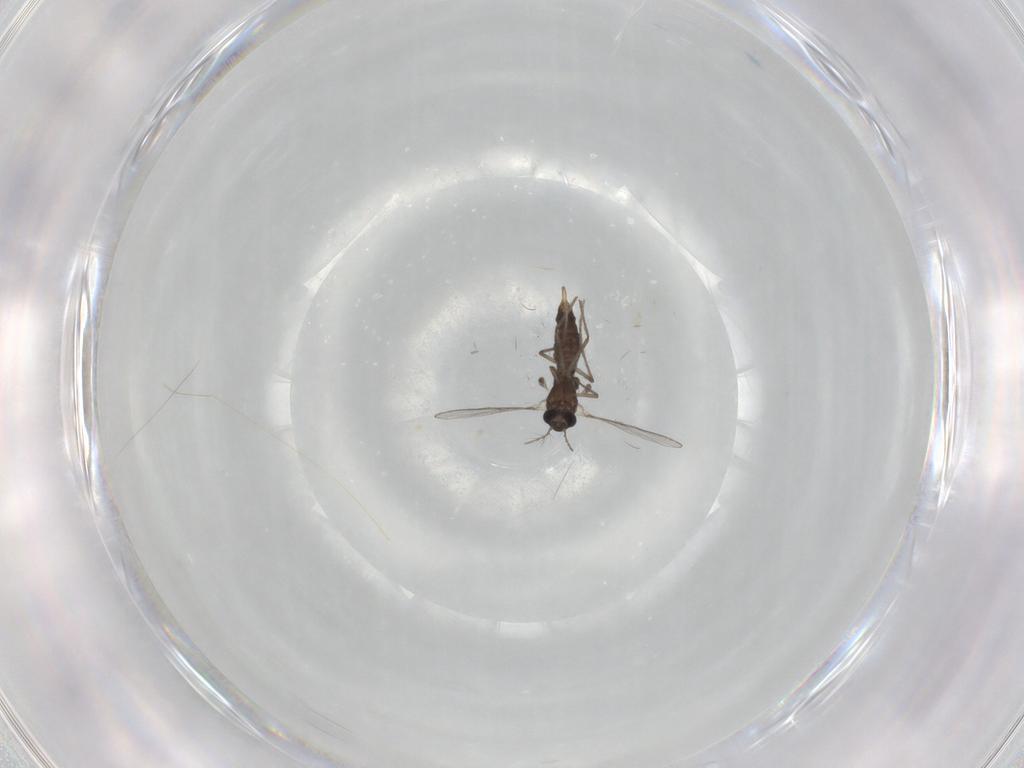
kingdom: Animalia
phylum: Arthropoda
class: Insecta
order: Diptera
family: Chironomidae
